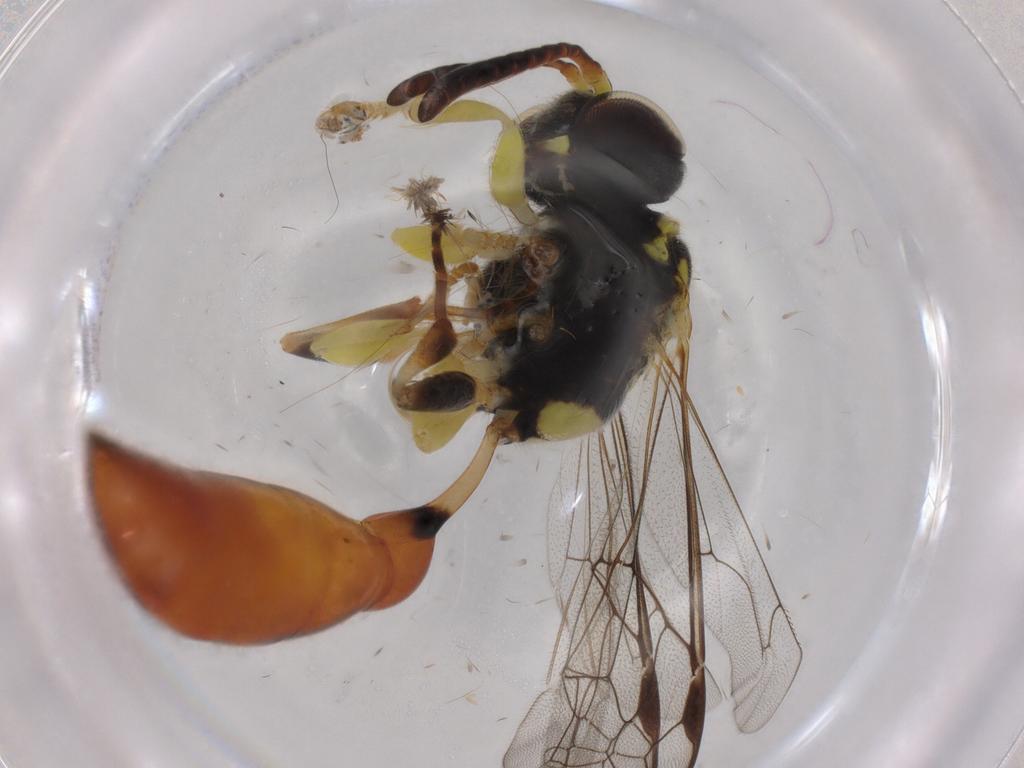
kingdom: Animalia
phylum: Arthropoda
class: Insecta
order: Hymenoptera
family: Crabronidae
